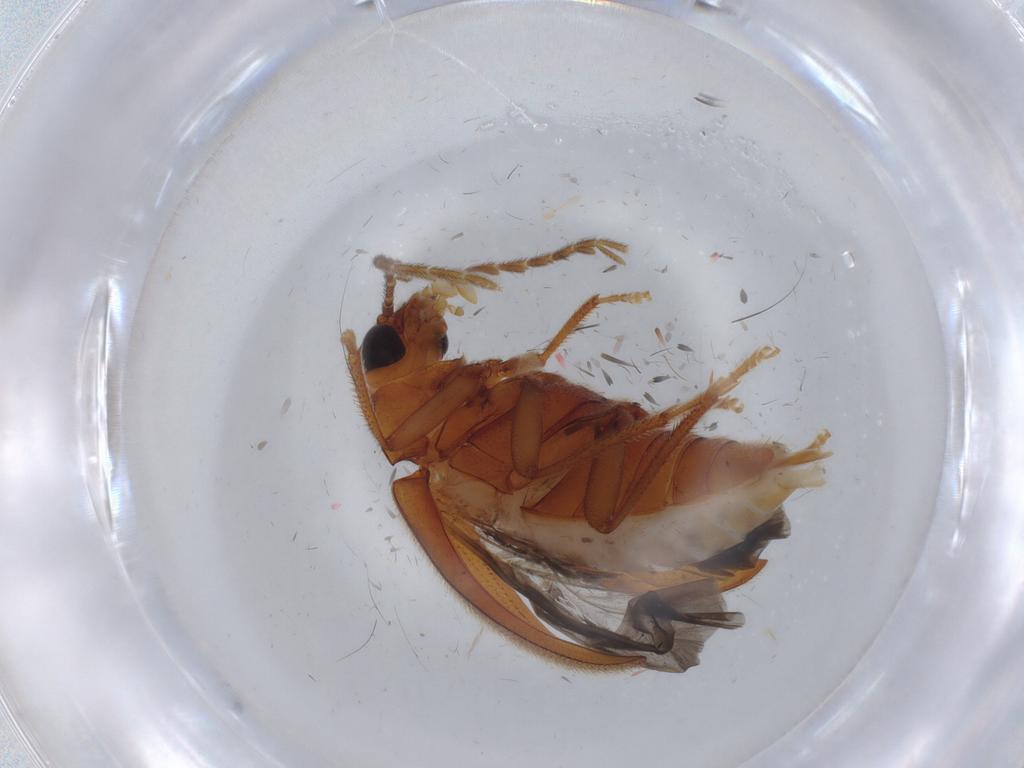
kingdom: Animalia
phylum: Arthropoda
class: Insecta
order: Coleoptera
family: Ptilodactylidae
